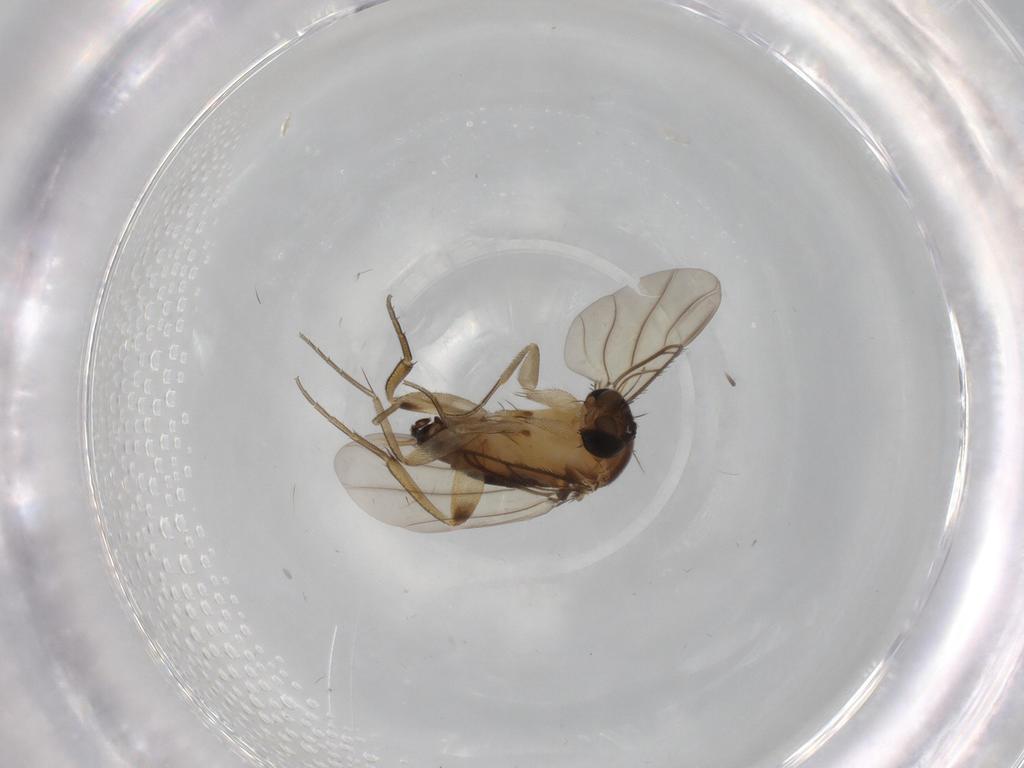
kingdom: Animalia
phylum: Arthropoda
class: Insecta
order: Diptera
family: Phoridae
